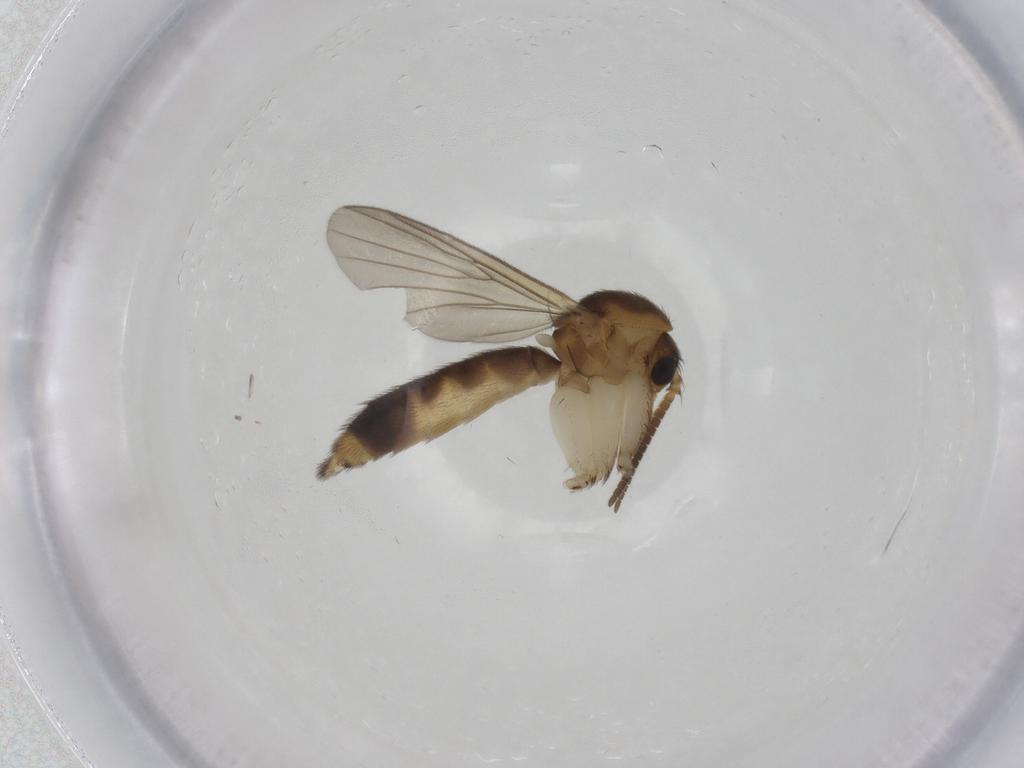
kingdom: Animalia
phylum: Arthropoda
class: Insecta
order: Diptera
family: Mycetophilidae
